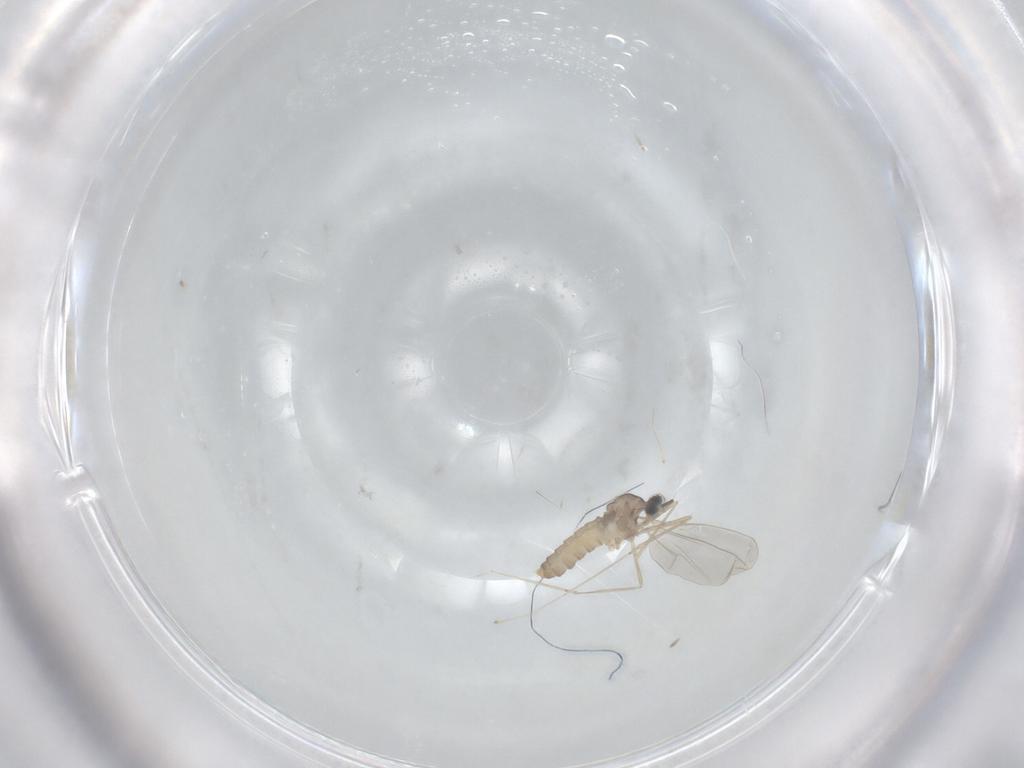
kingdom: Animalia
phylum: Arthropoda
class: Insecta
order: Diptera
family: Cecidomyiidae
